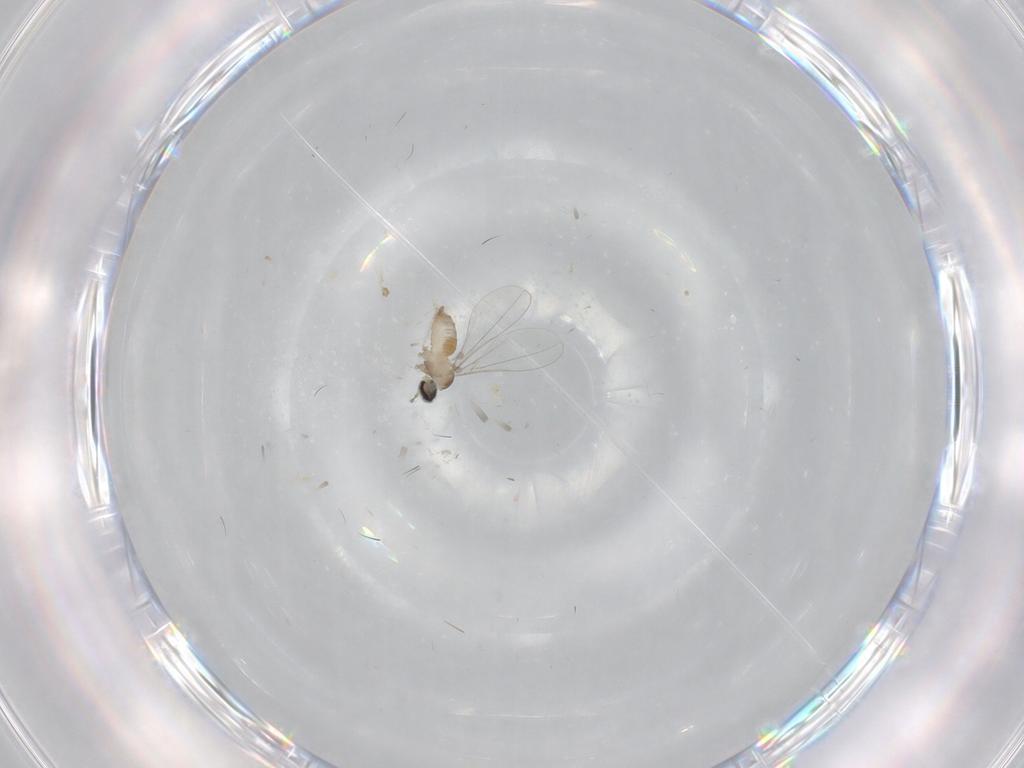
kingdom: Animalia
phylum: Arthropoda
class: Insecta
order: Diptera
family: Cecidomyiidae
